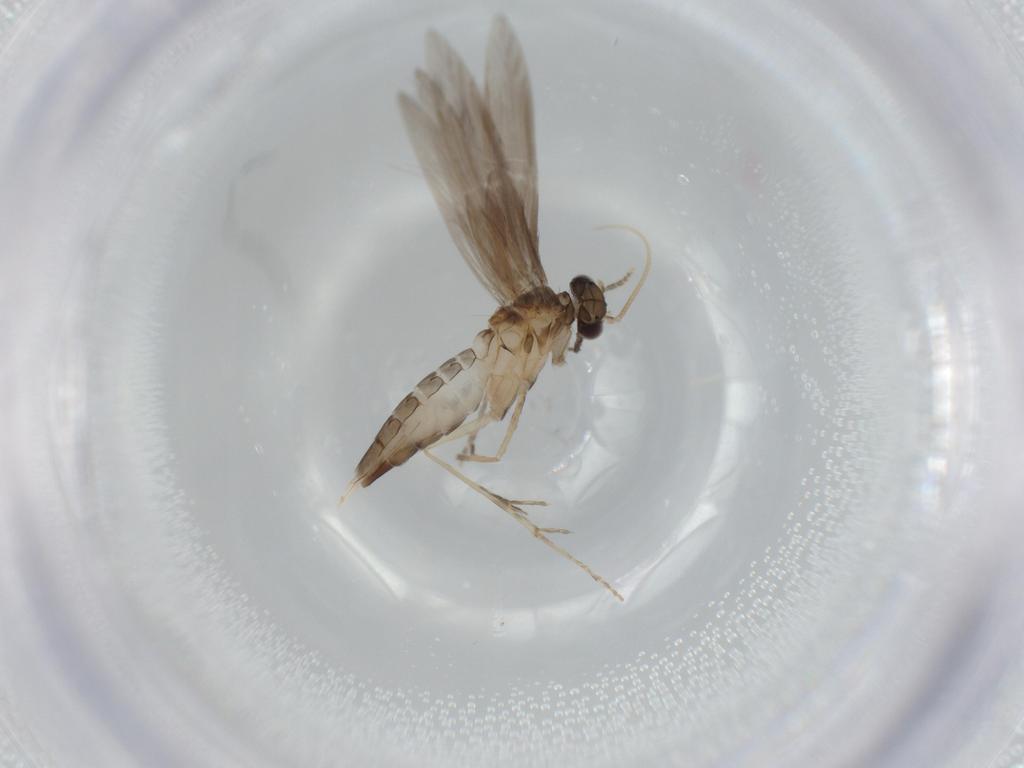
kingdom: Animalia
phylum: Arthropoda
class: Insecta
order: Trichoptera
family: Hydroptilidae
